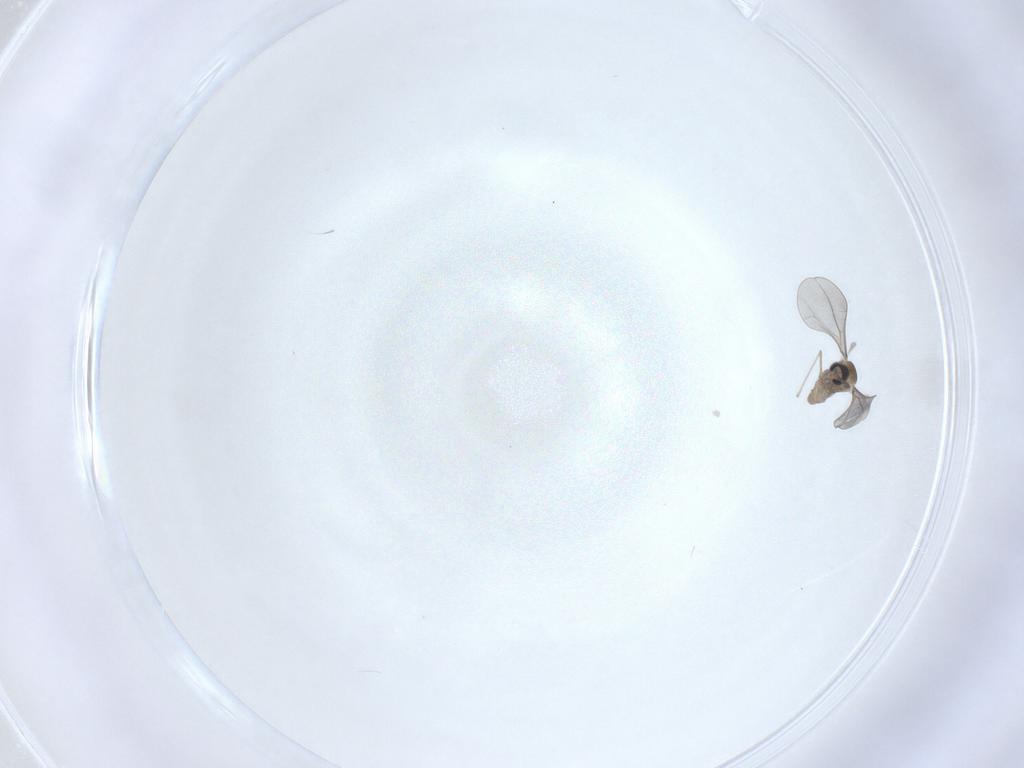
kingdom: Animalia
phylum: Arthropoda
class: Insecta
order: Diptera
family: Cecidomyiidae
